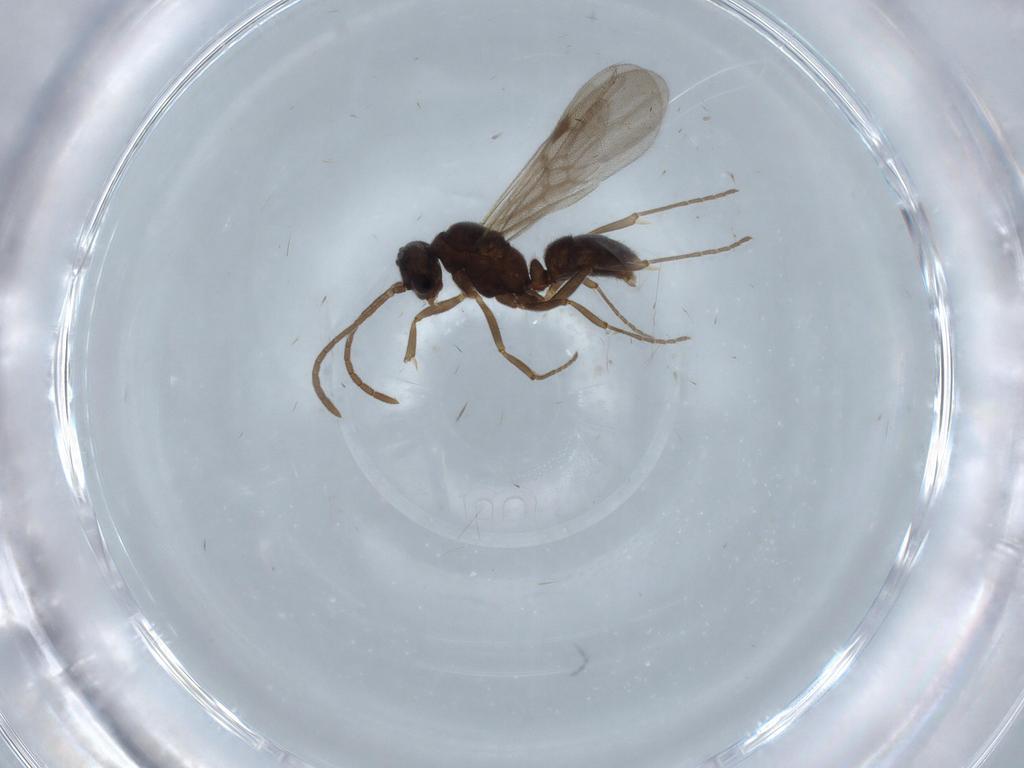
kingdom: Animalia
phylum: Arthropoda
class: Insecta
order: Hymenoptera
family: Formicidae
